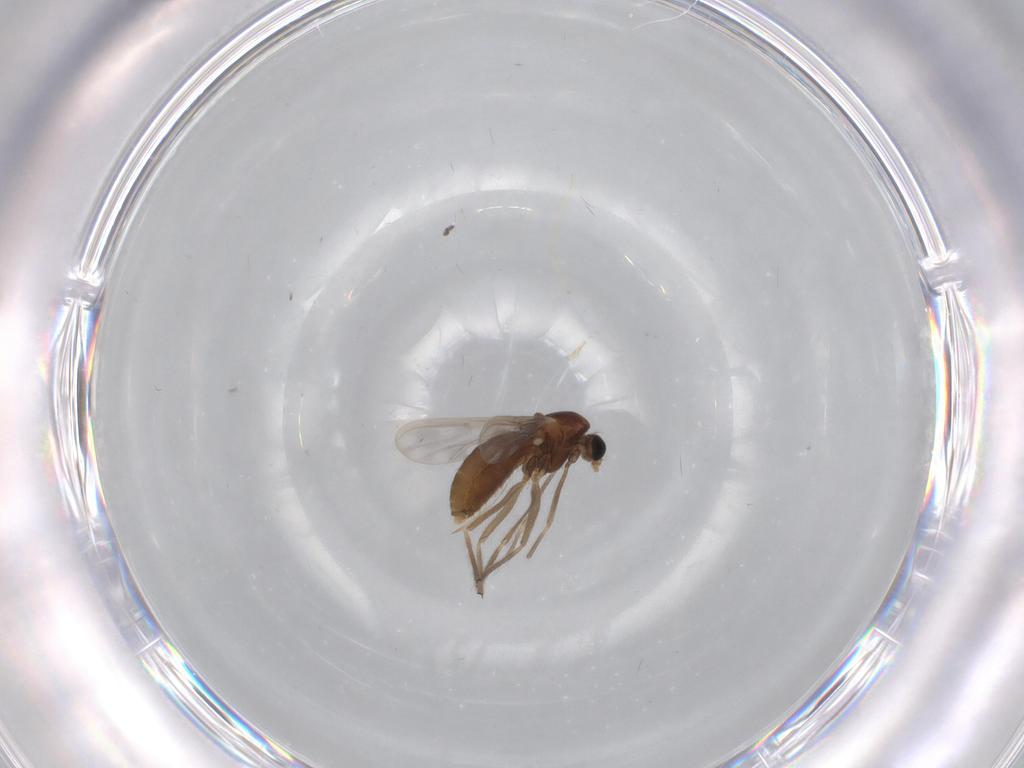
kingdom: Animalia
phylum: Arthropoda
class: Insecta
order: Diptera
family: Chironomidae
